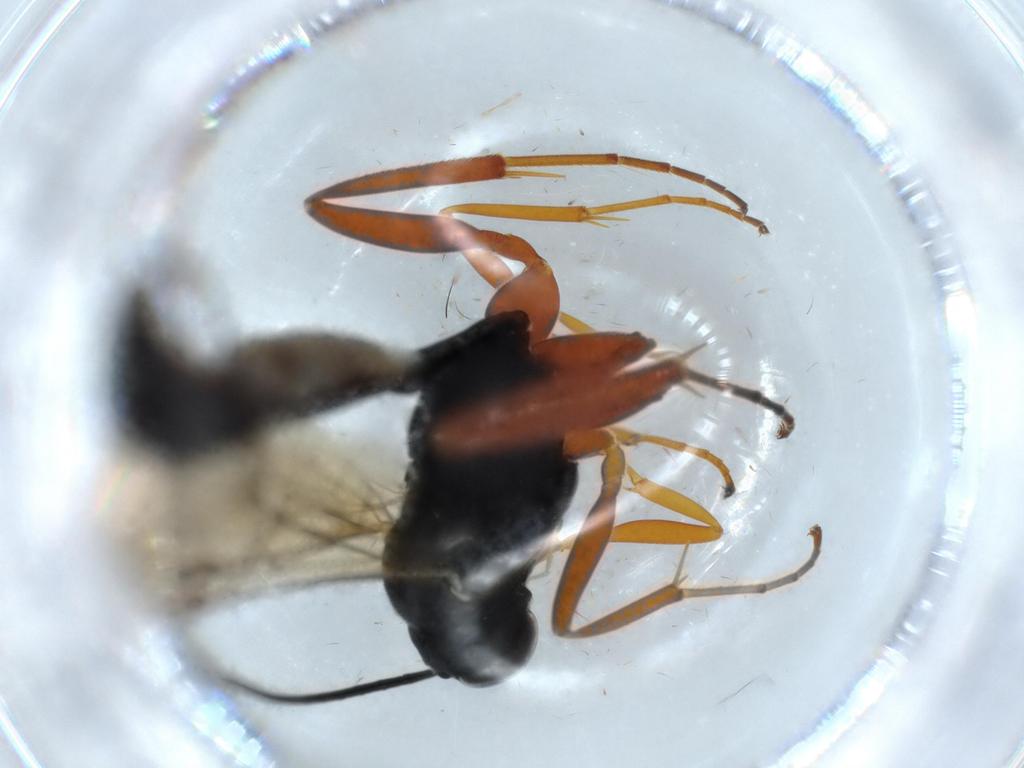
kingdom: Animalia
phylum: Arthropoda
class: Insecta
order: Hymenoptera
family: Ichneumonidae
